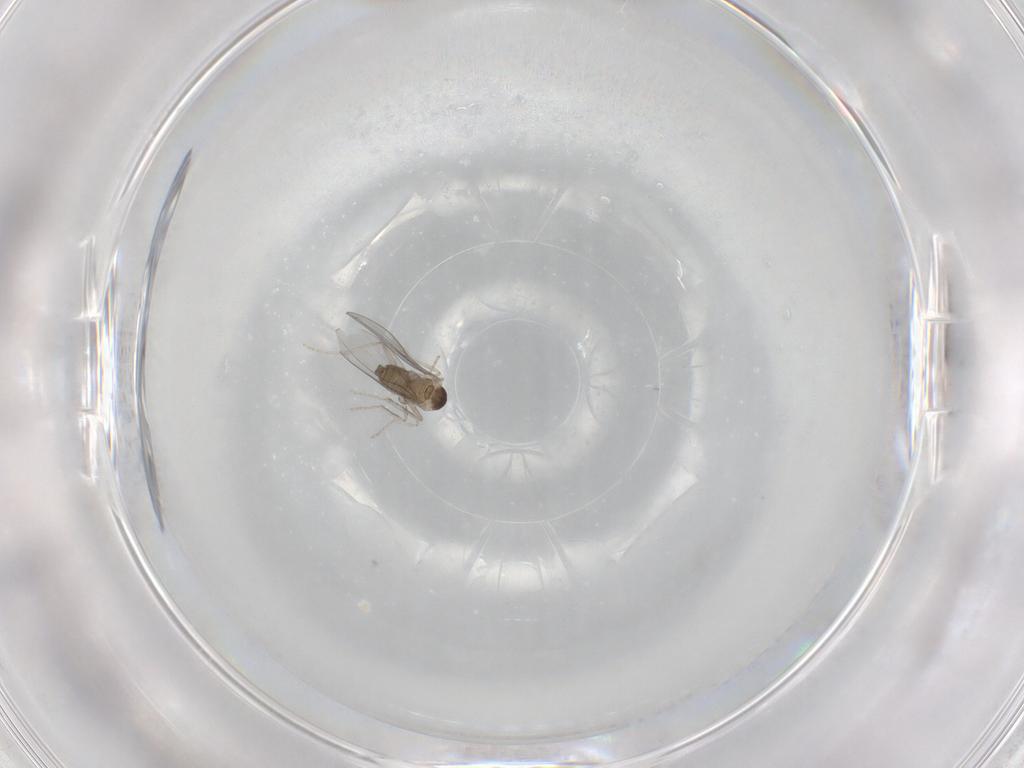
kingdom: Animalia
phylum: Arthropoda
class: Insecta
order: Diptera
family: Cecidomyiidae
